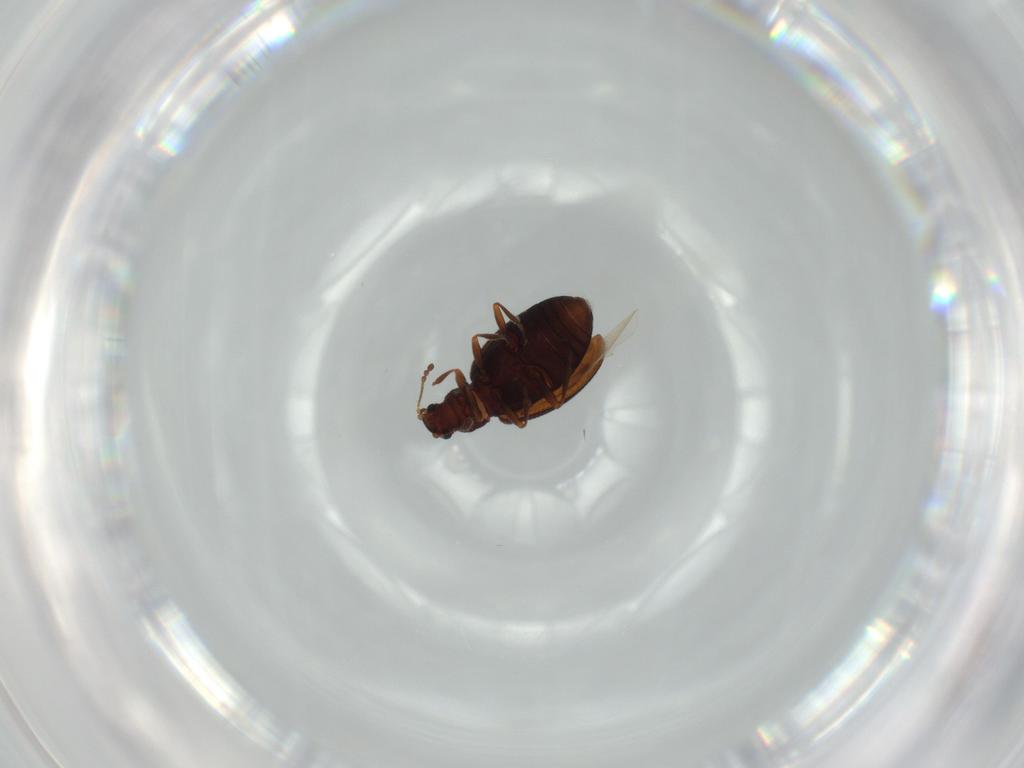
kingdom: Animalia
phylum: Arthropoda
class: Insecta
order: Coleoptera
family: Latridiidae
